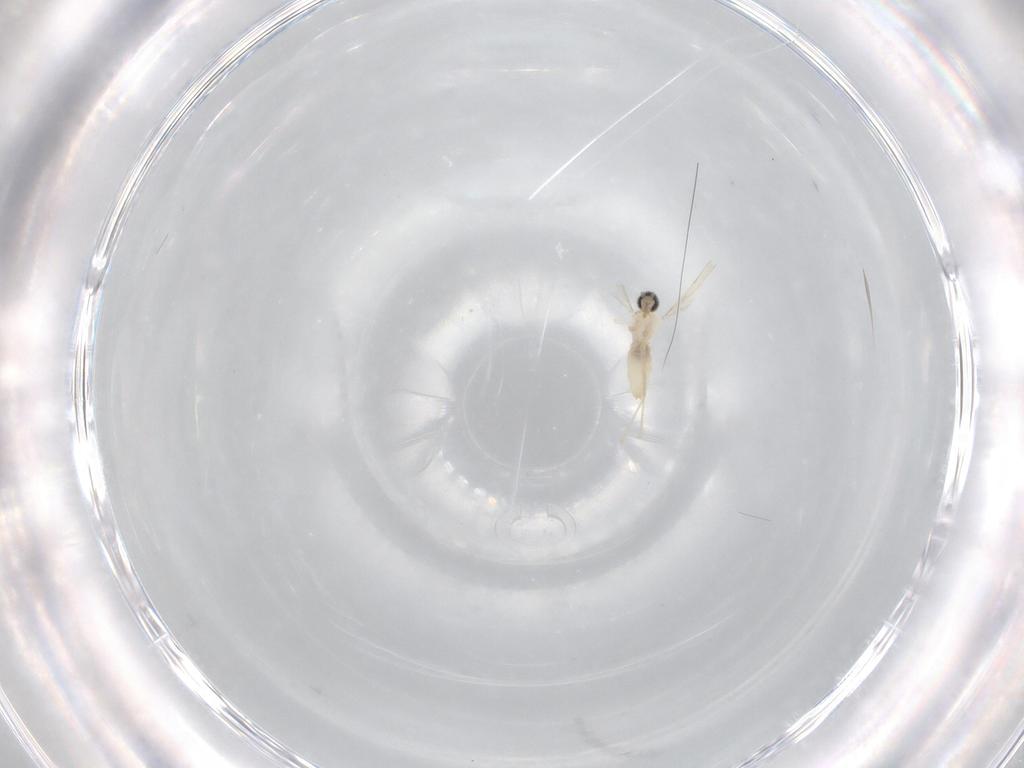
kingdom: Animalia
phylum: Arthropoda
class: Insecta
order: Diptera
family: Cecidomyiidae
